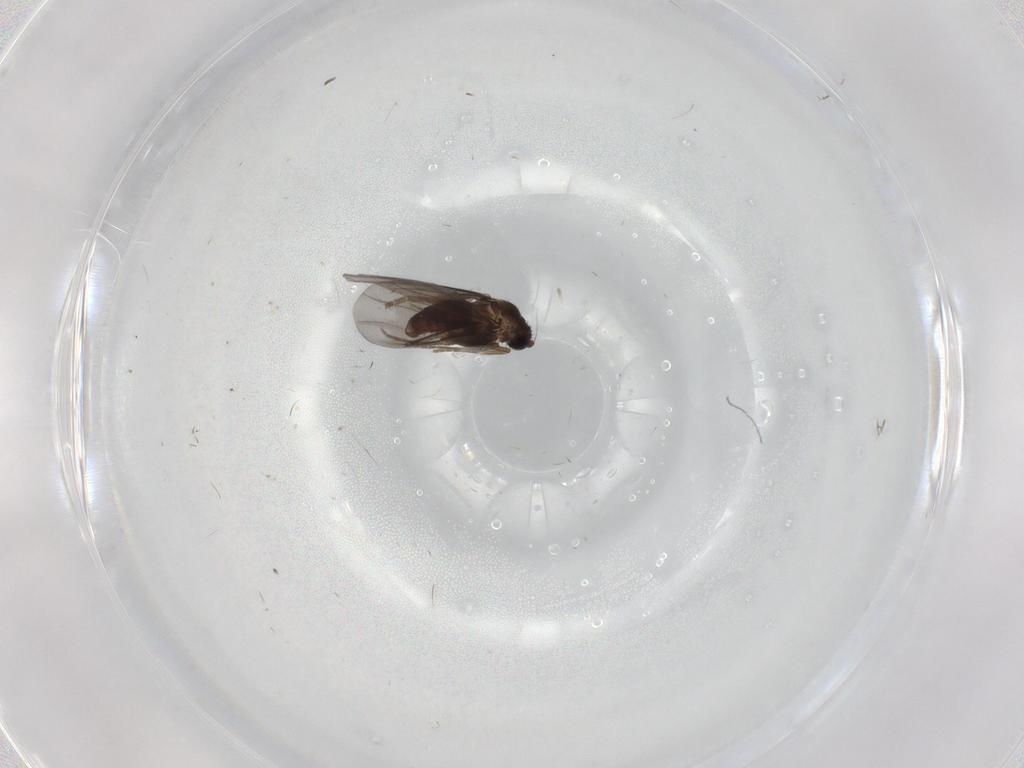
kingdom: Animalia
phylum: Arthropoda
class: Insecta
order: Diptera
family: Phoridae
